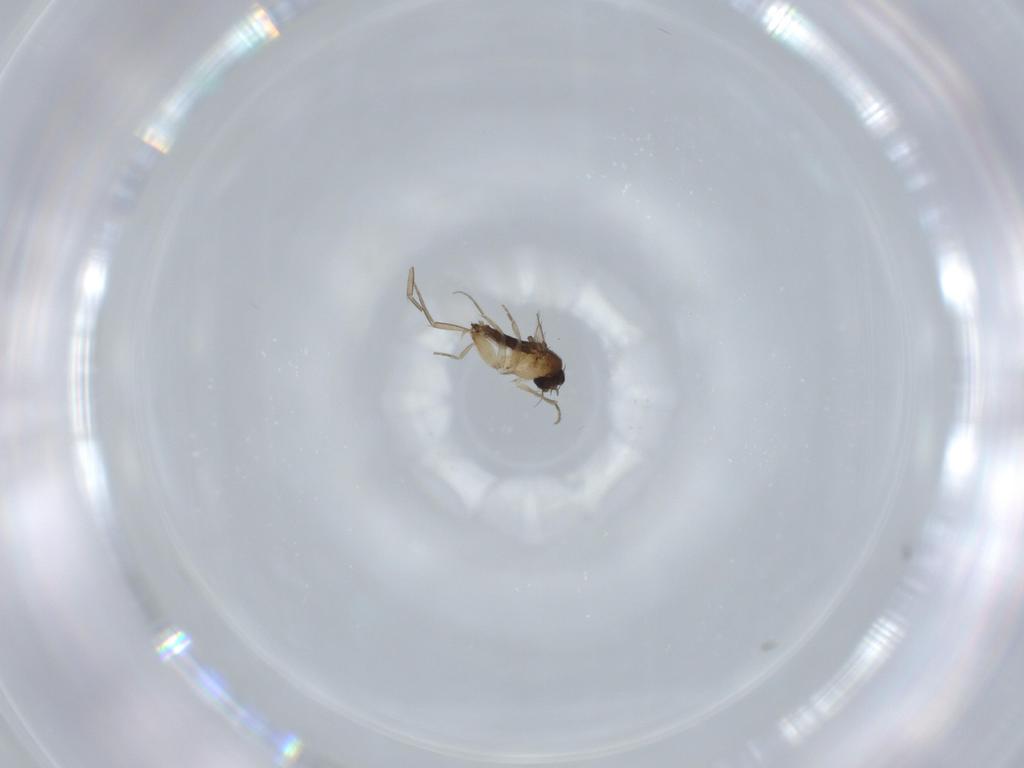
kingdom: Animalia
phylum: Arthropoda
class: Insecta
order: Diptera
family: Phoridae
